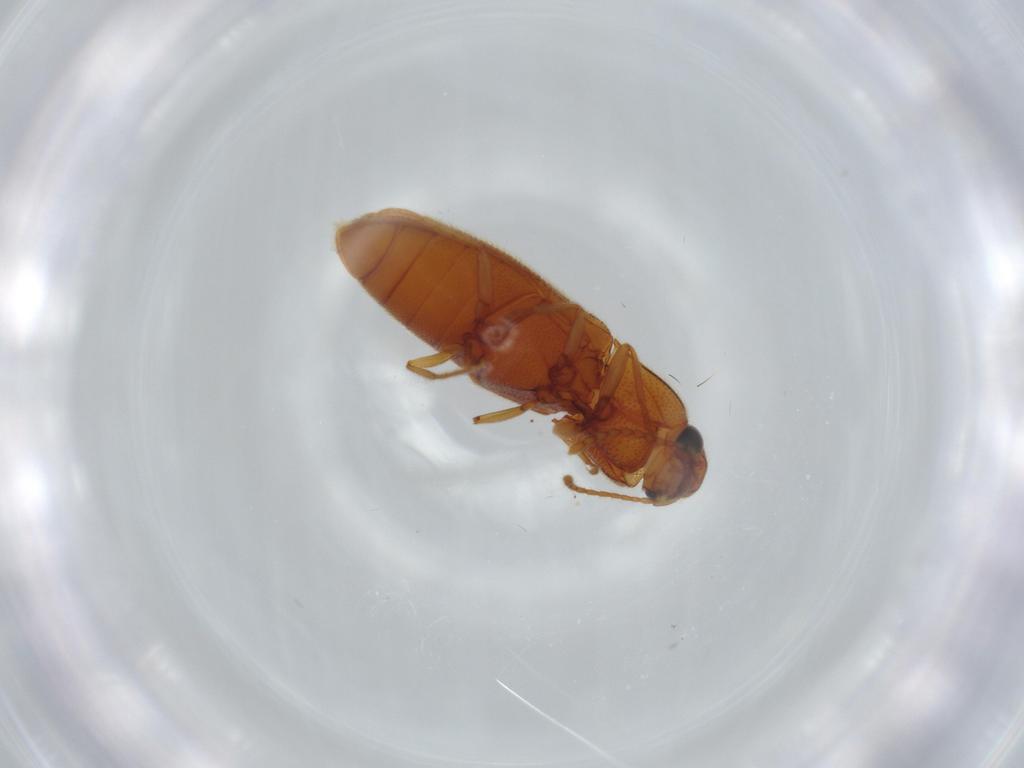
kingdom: Animalia
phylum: Arthropoda
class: Insecta
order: Coleoptera
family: Elateridae
